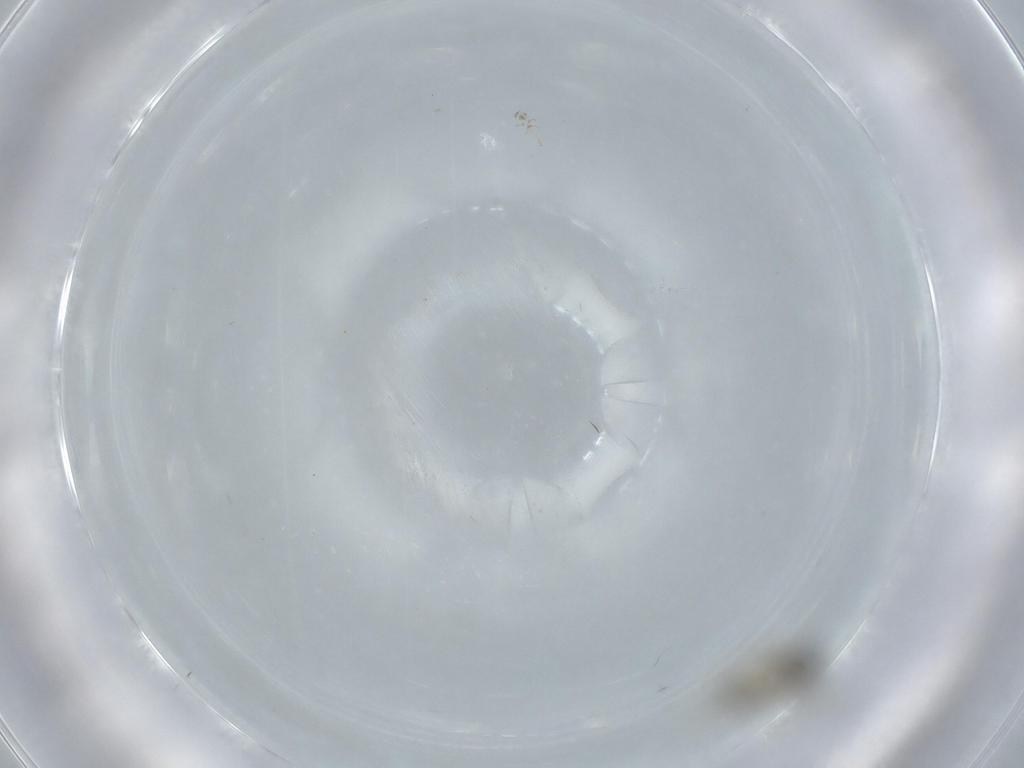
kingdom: Animalia
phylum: Arthropoda
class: Insecta
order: Diptera
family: Cecidomyiidae
